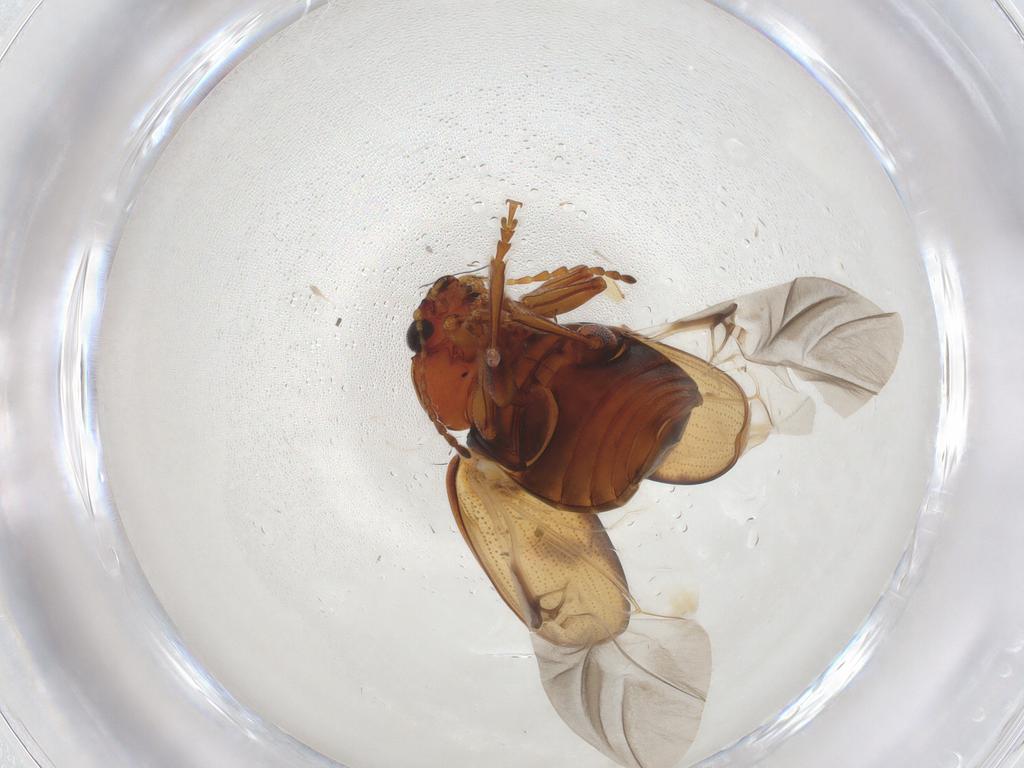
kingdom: Animalia
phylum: Arthropoda
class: Insecta
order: Coleoptera
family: Chrysomelidae
